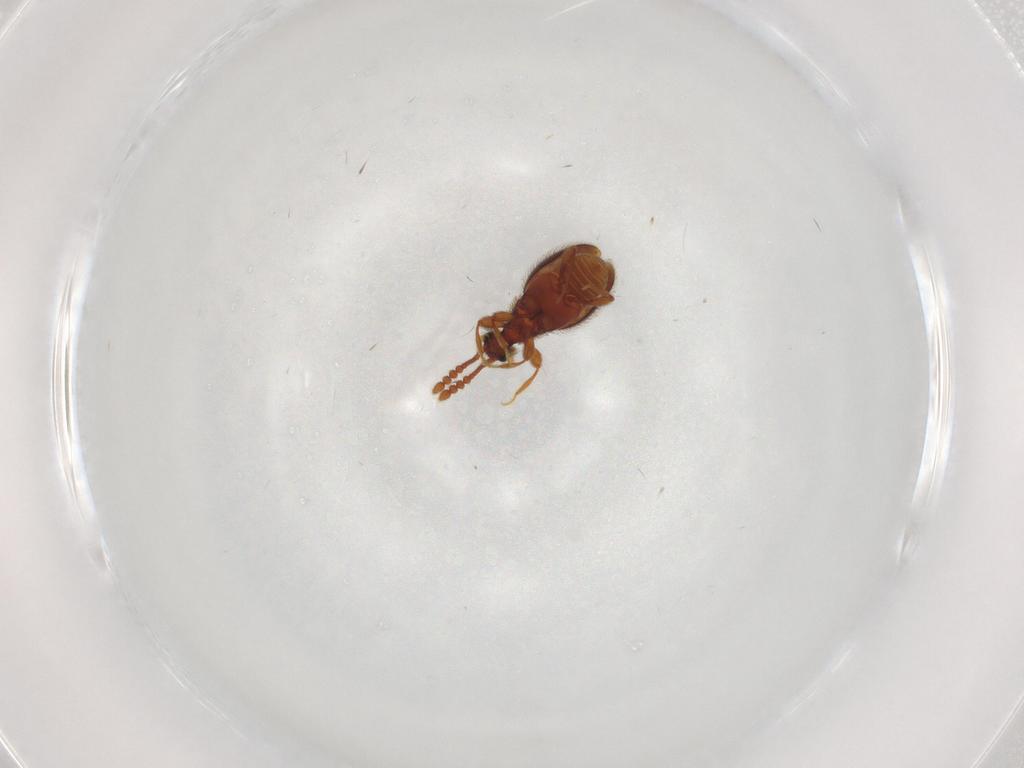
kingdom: Animalia
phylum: Arthropoda
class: Insecta
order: Coleoptera
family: Staphylinidae
